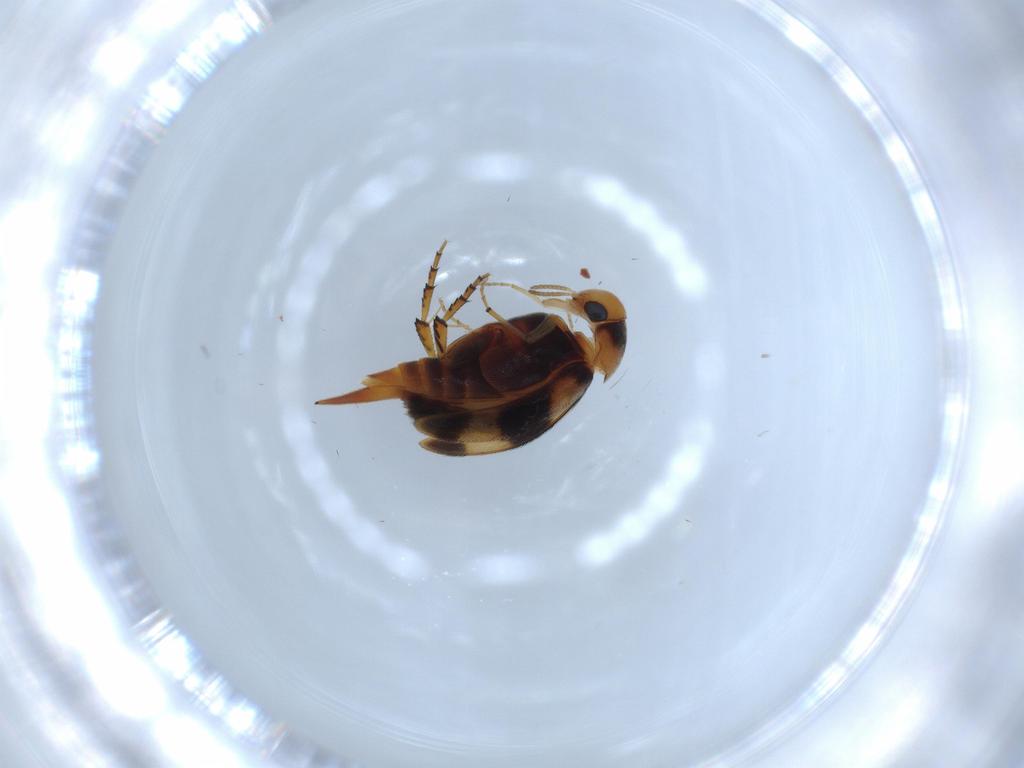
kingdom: Animalia
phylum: Arthropoda
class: Insecta
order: Coleoptera
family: Mordellidae
